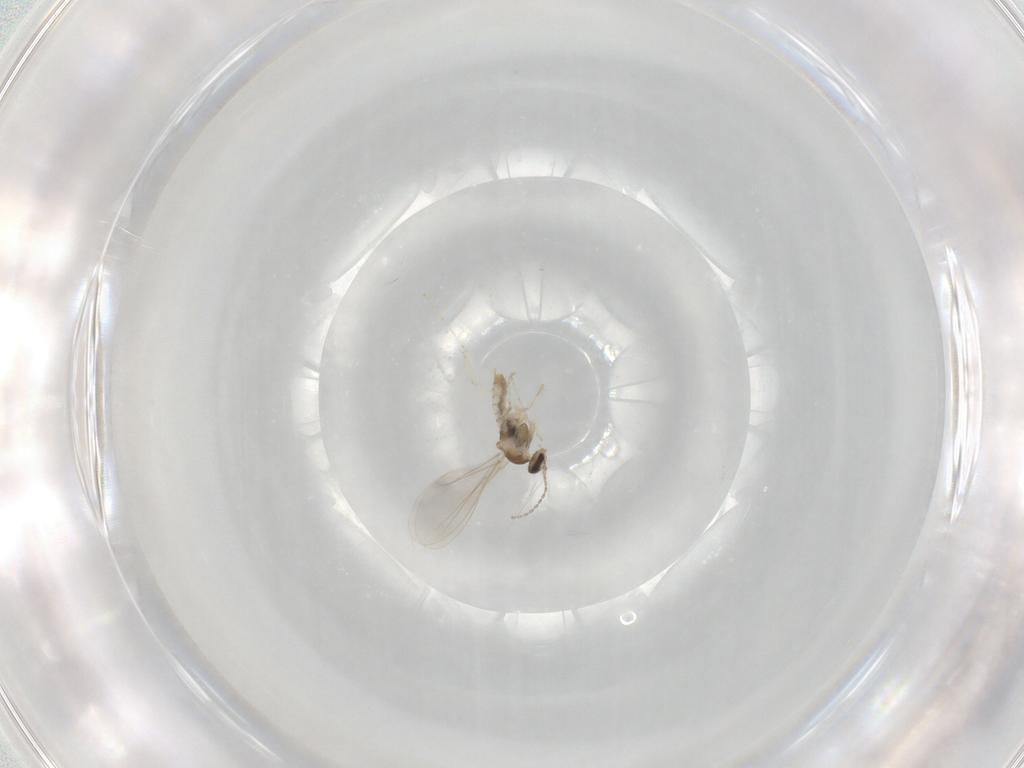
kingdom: Animalia
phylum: Arthropoda
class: Insecta
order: Diptera
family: Cecidomyiidae
